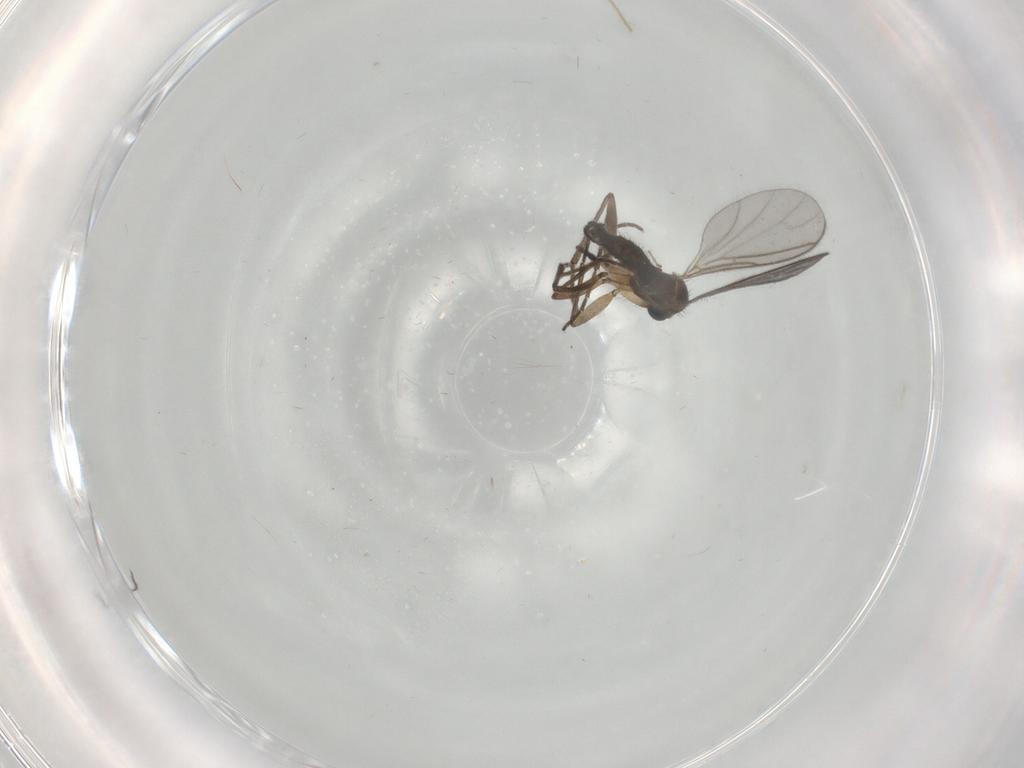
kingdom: Animalia
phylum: Arthropoda
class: Insecta
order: Diptera
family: Sciaridae
